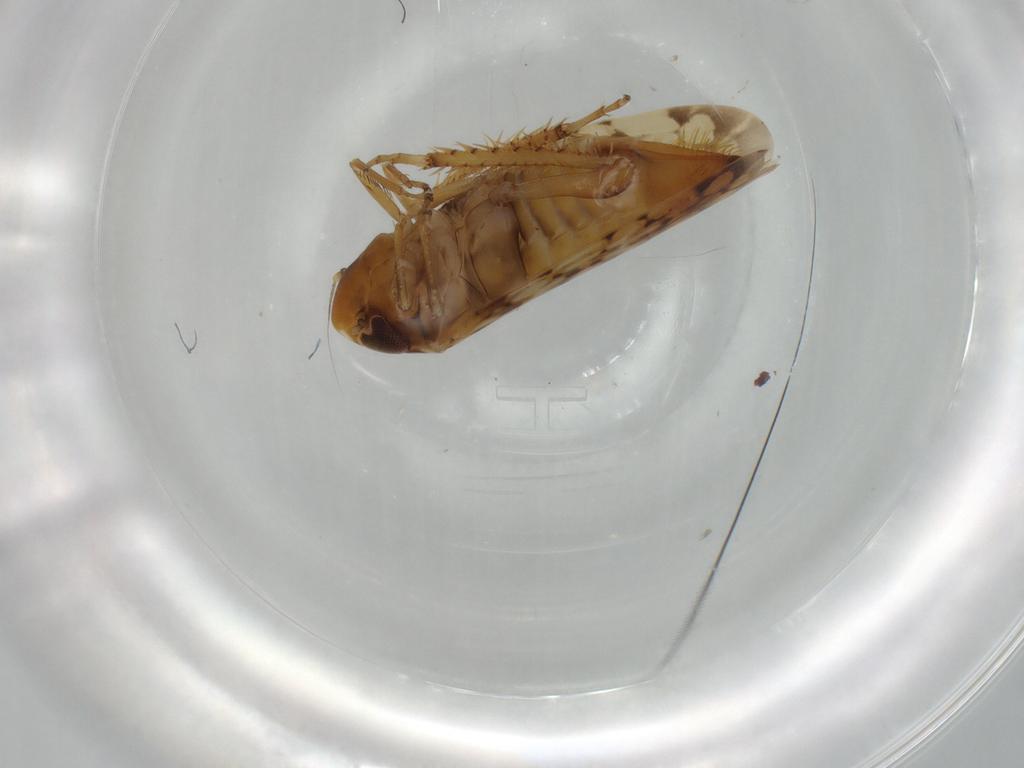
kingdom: Animalia
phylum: Arthropoda
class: Insecta
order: Hemiptera
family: Cicadellidae
